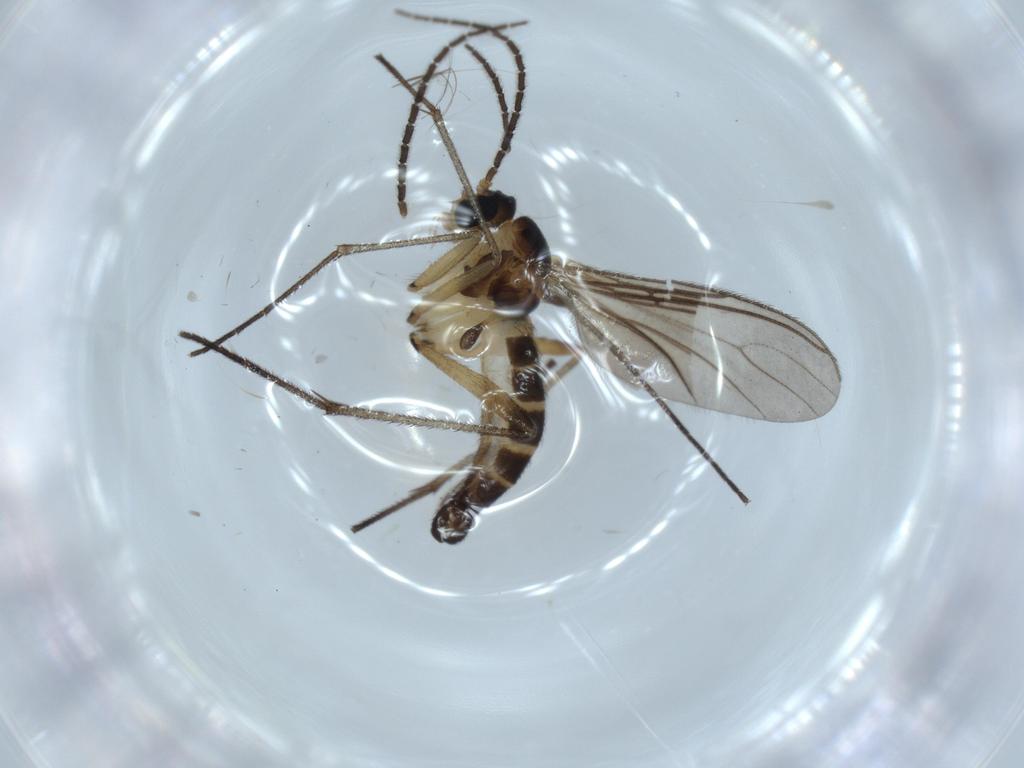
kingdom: Animalia
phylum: Arthropoda
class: Insecta
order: Diptera
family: Sciaridae
